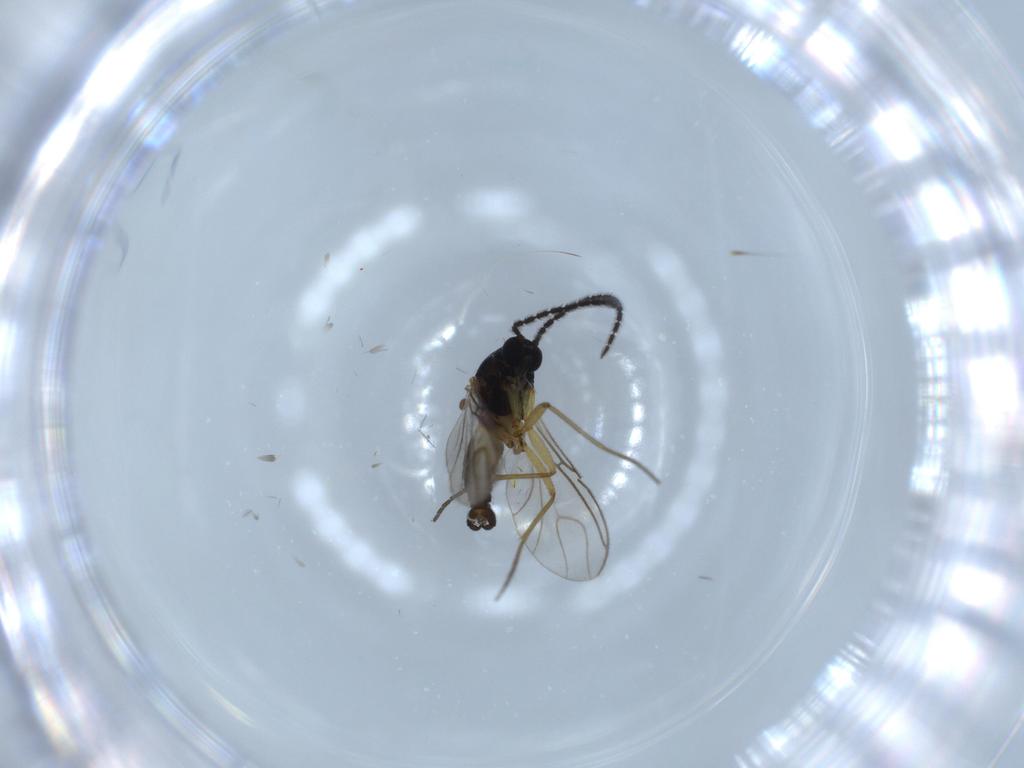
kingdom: Animalia
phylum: Arthropoda
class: Insecta
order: Diptera
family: Sciaridae
